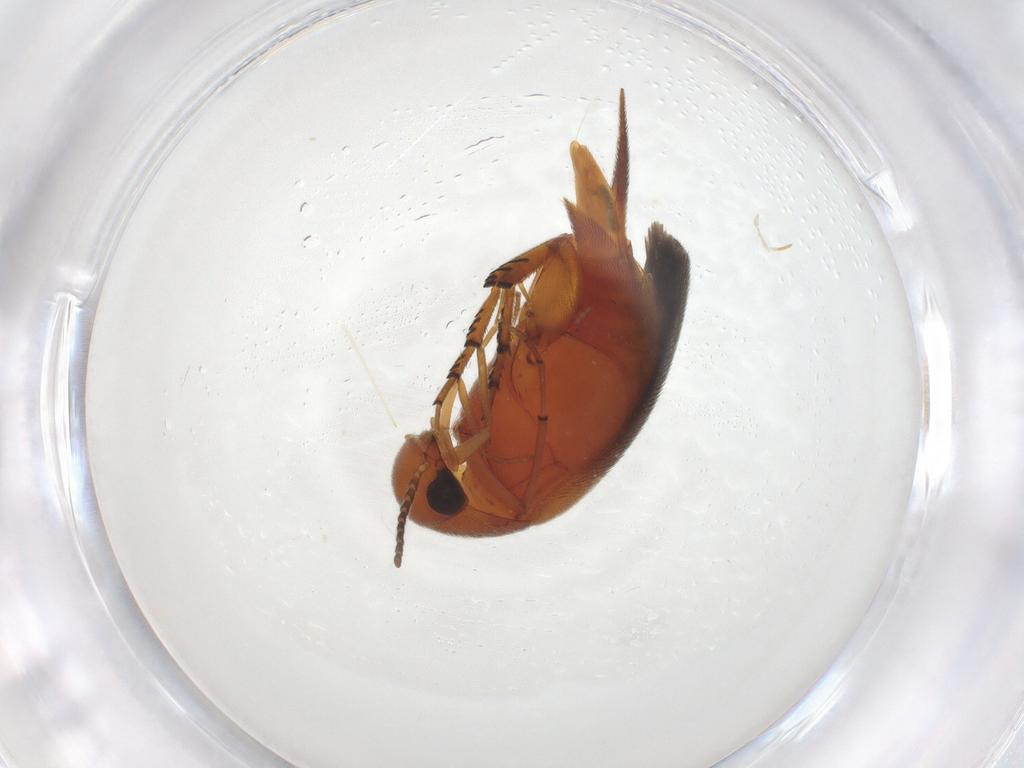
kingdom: Animalia
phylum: Arthropoda
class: Insecta
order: Coleoptera
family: Mordellidae
